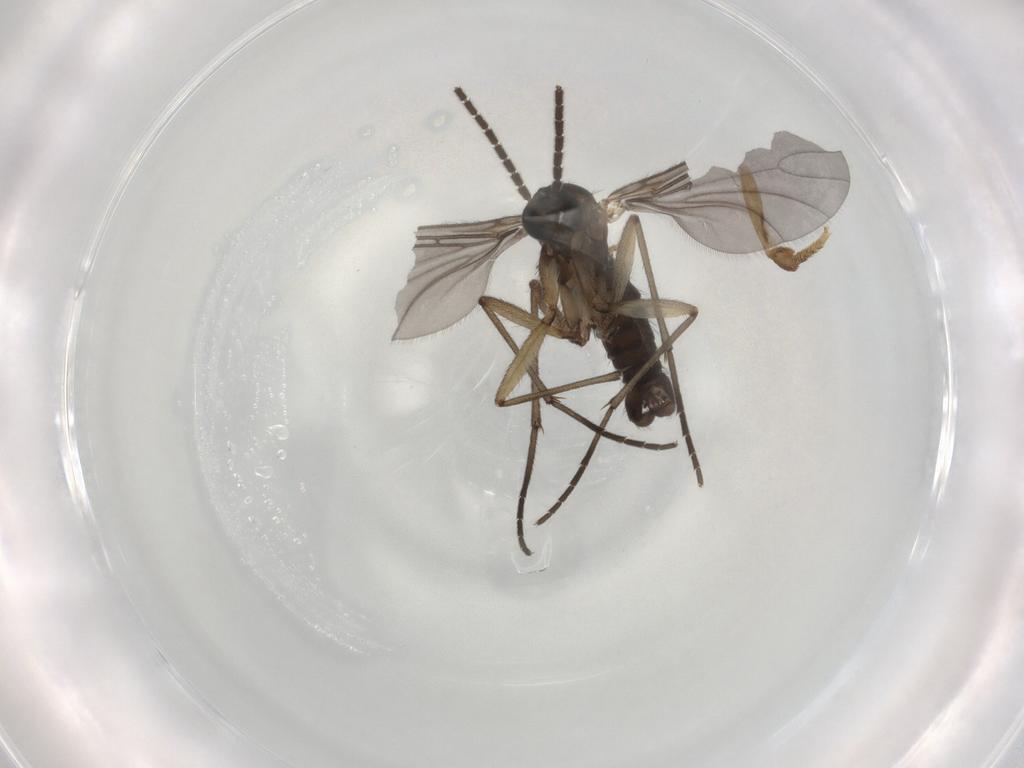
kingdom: Animalia
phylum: Arthropoda
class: Insecta
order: Diptera
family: Sciaridae
